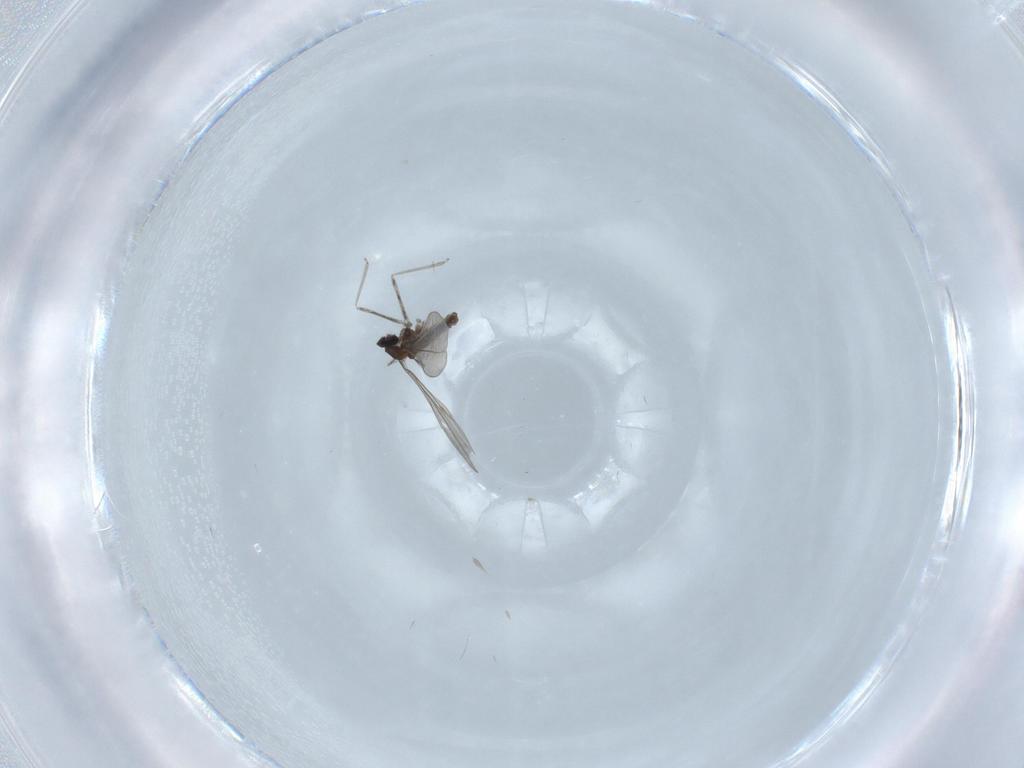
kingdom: Animalia
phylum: Arthropoda
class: Insecta
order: Diptera
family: Cecidomyiidae
